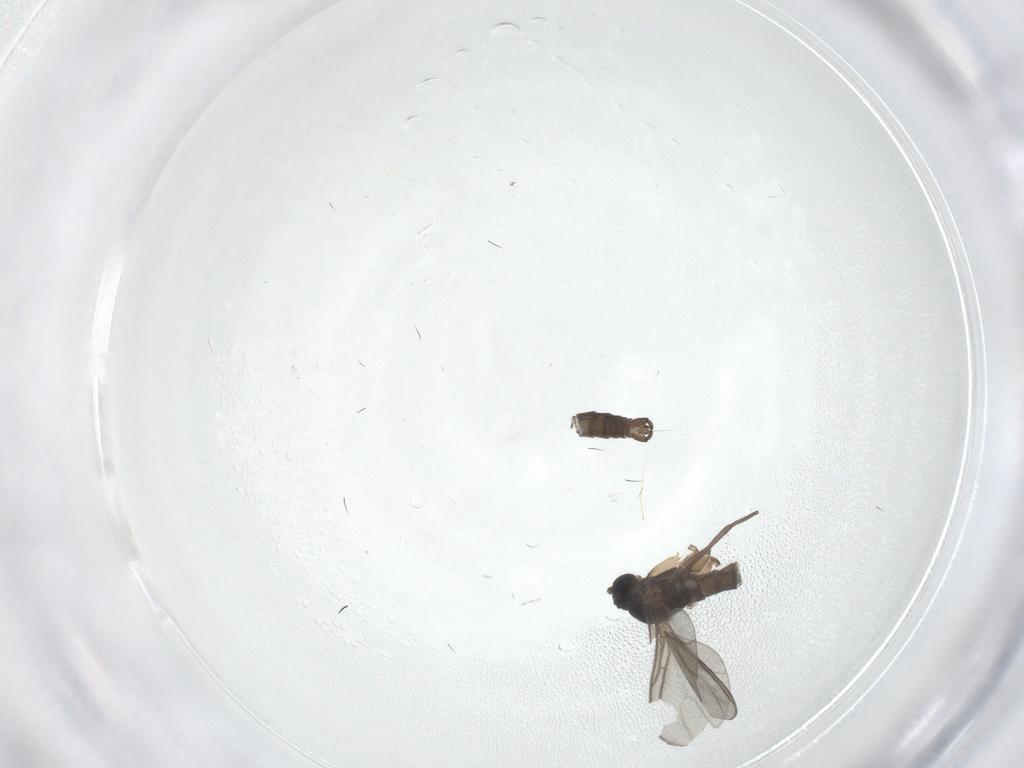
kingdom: Animalia
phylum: Arthropoda
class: Insecta
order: Diptera
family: Sciaridae
